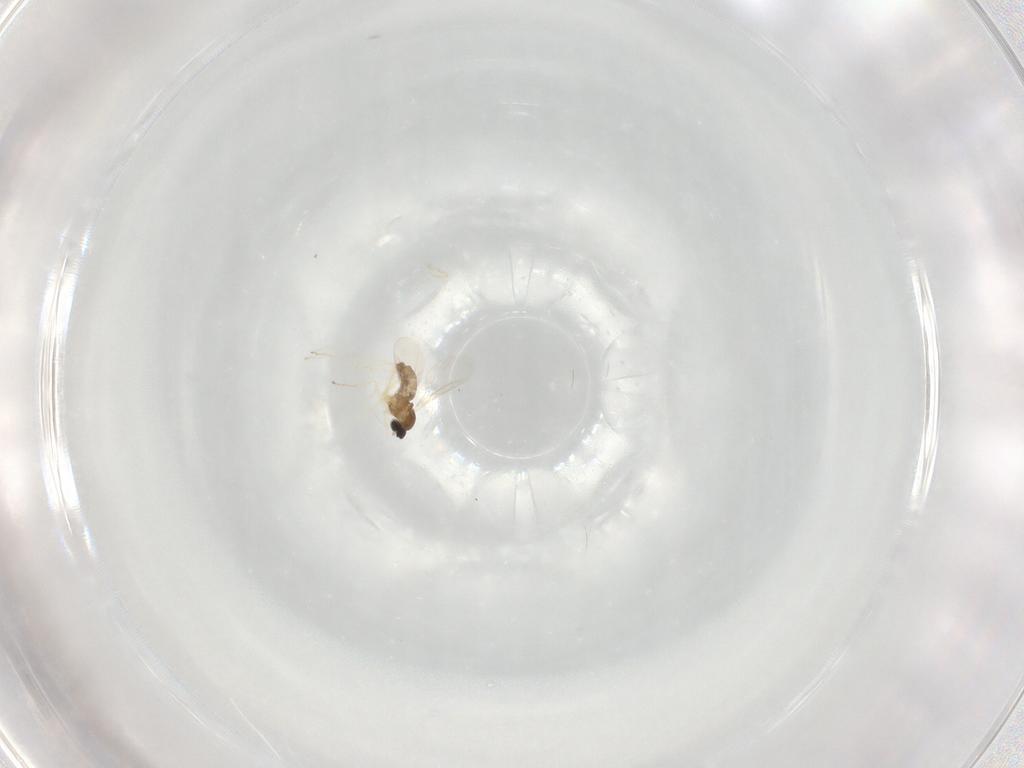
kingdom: Animalia
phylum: Arthropoda
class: Insecta
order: Diptera
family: Cecidomyiidae
